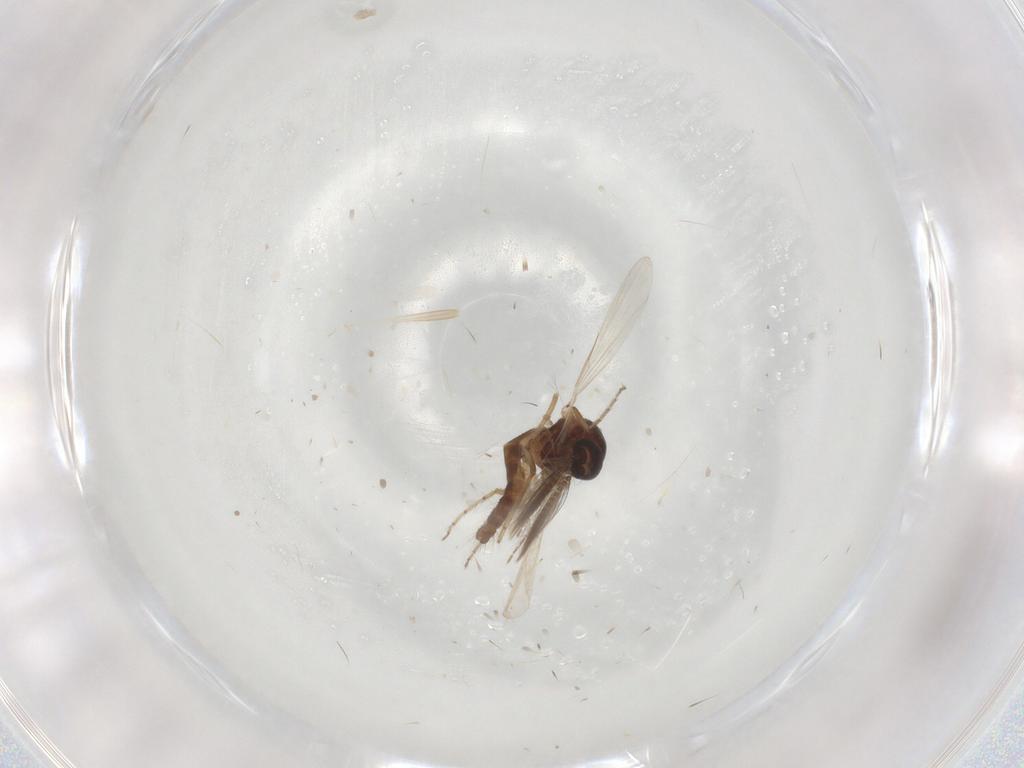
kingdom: Animalia
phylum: Arthropoda
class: Insecta
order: Diptera
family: Ceratopogonidae
